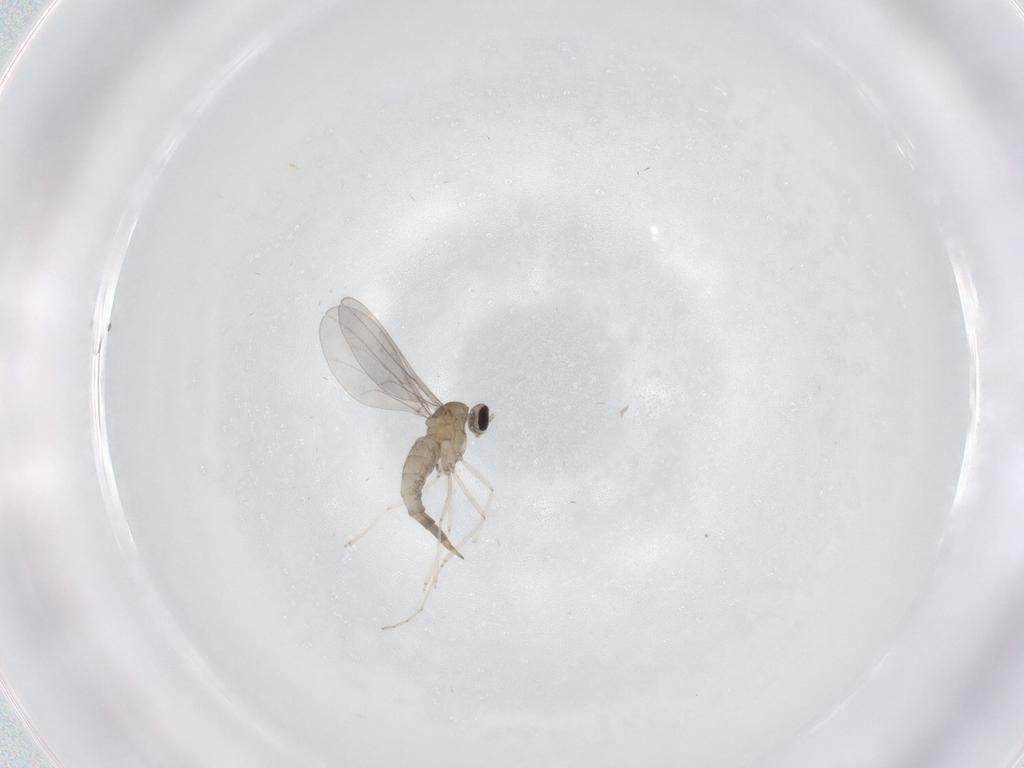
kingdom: Animalia
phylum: Arthropoda
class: Insecta
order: Diptera
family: Cecidomyiidae
